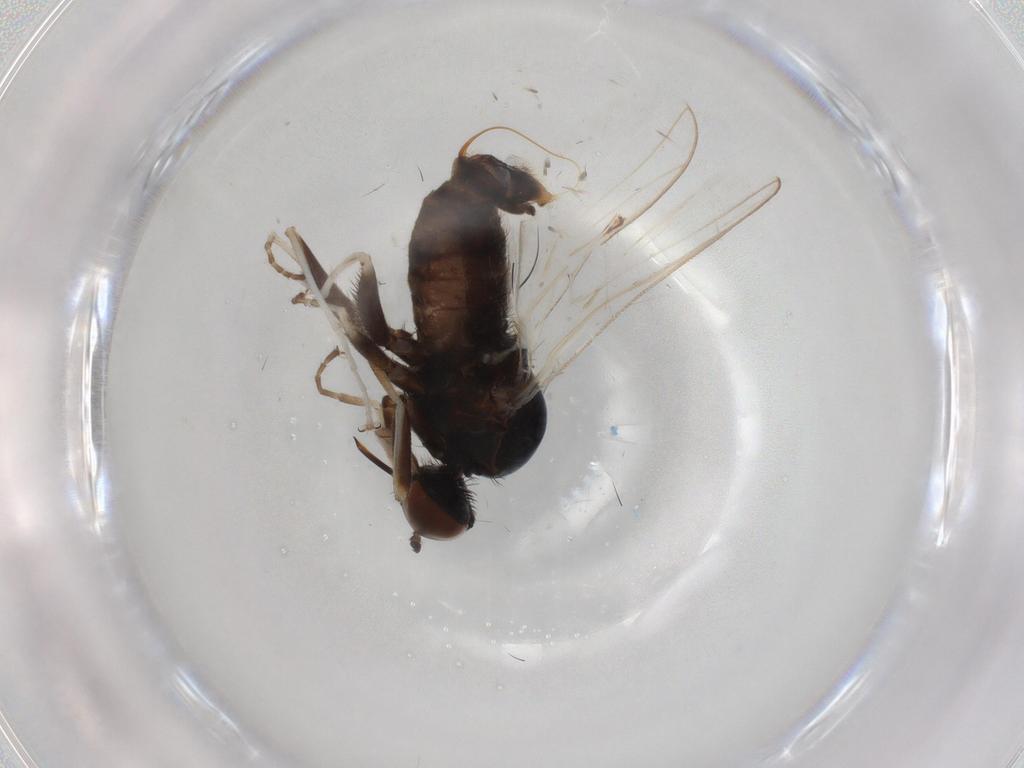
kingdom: Animalia
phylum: Arthropoda
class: Insecta
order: Diptera
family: Empididae
